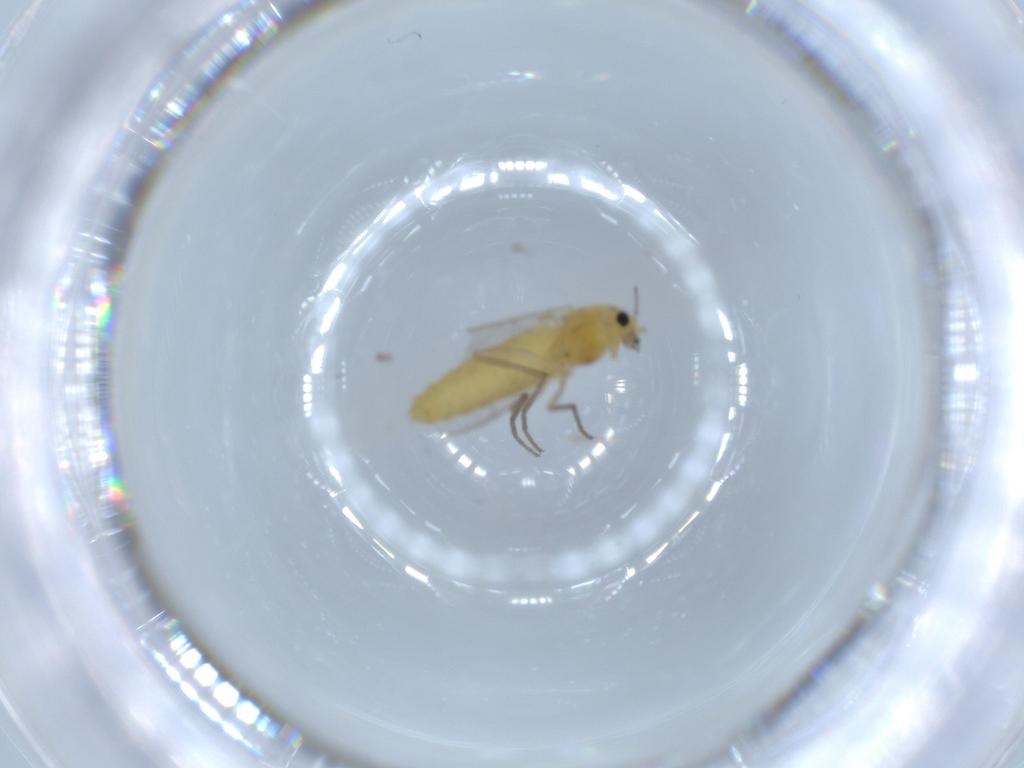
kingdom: Animalia
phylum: Arthropoda
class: Insecta
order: Diptera
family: Chironomidae
